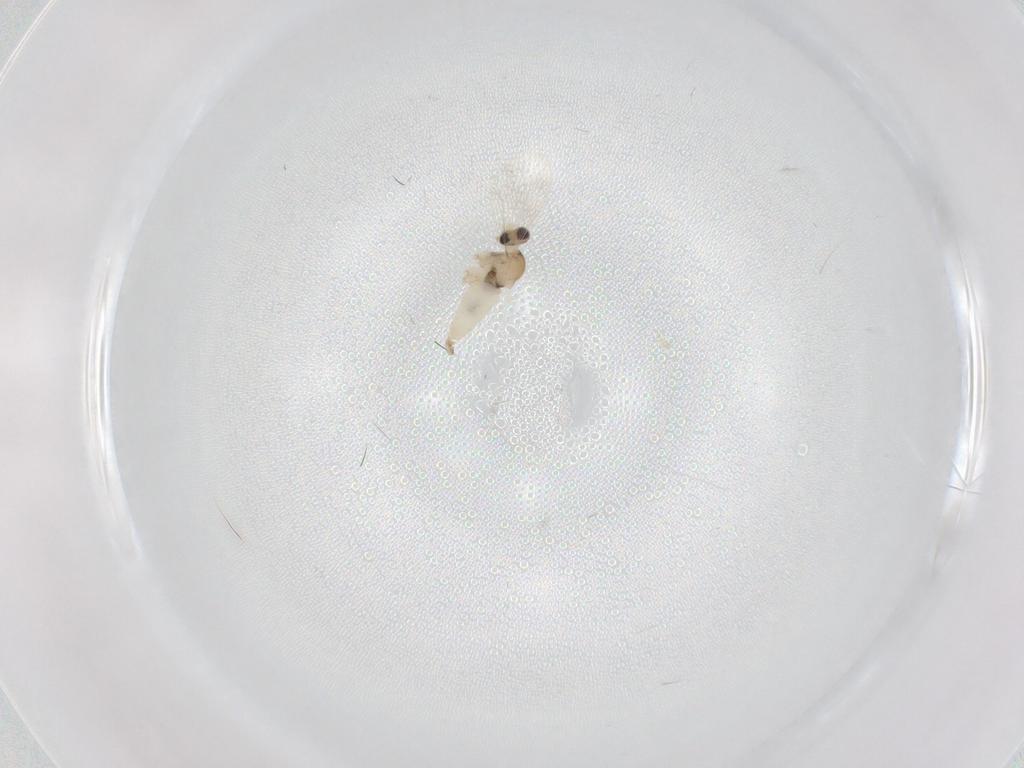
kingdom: Animalia
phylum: Arthropoda
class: Insecta
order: Diptera
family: Cecidomyiidae
